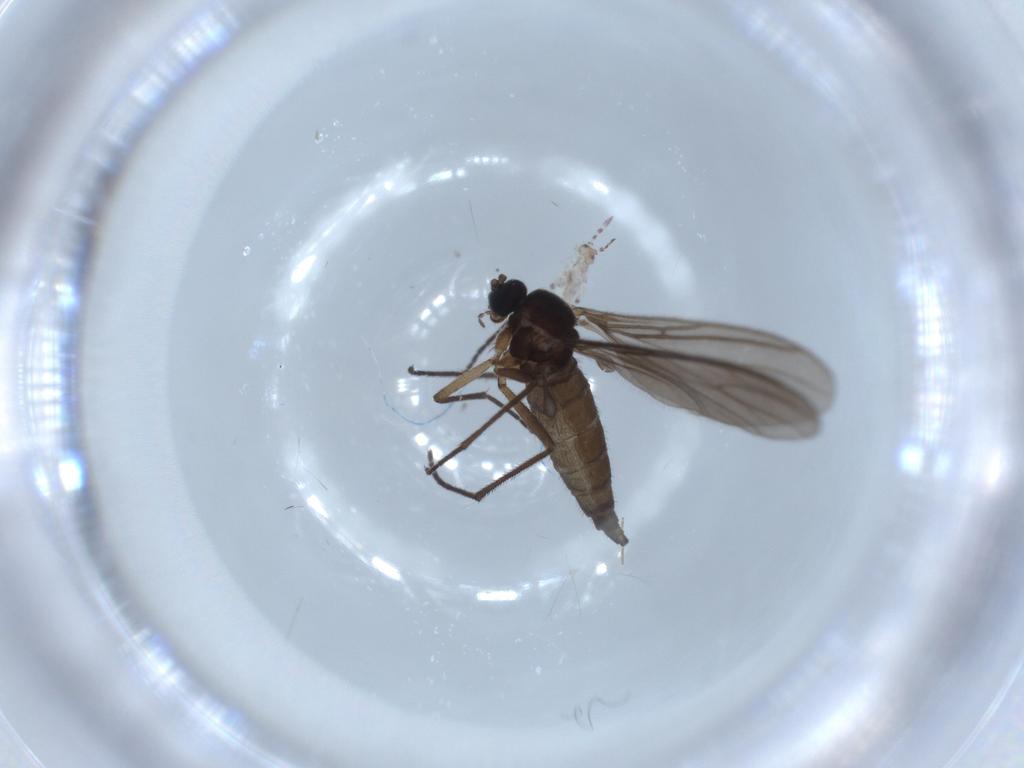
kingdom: Animalia
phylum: Arthropoda
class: Insecta
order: Diptera
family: Sciaridae
